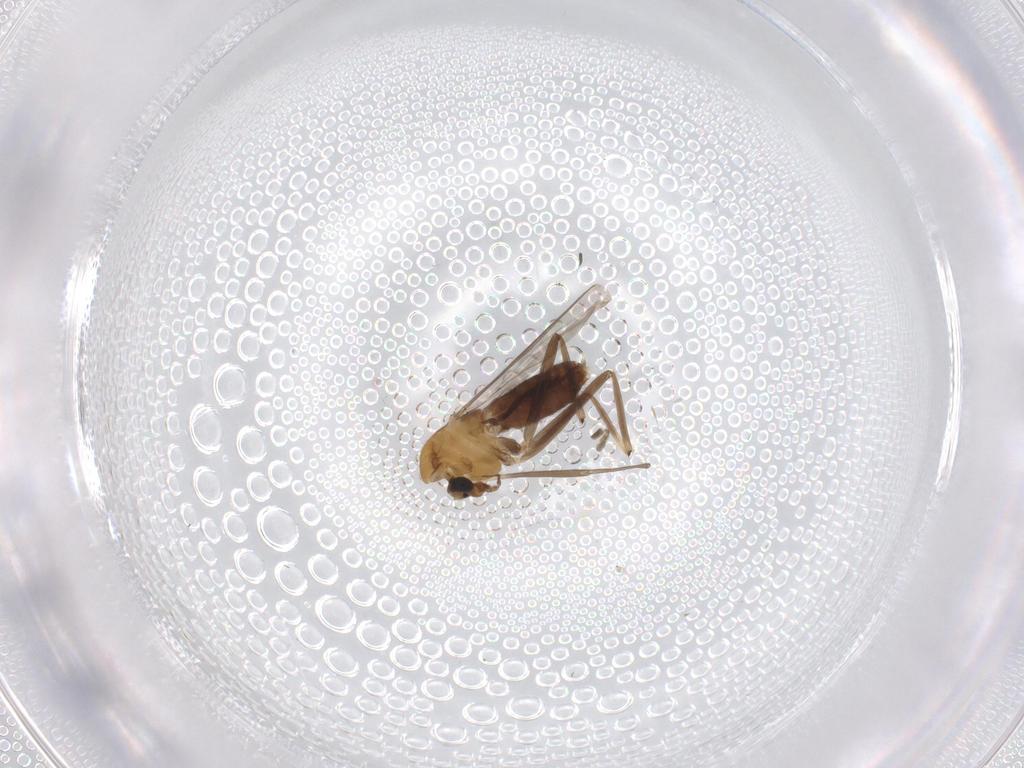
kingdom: Animalia
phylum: Arthropoda
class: Insecta
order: Diptera
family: Chironomidae
